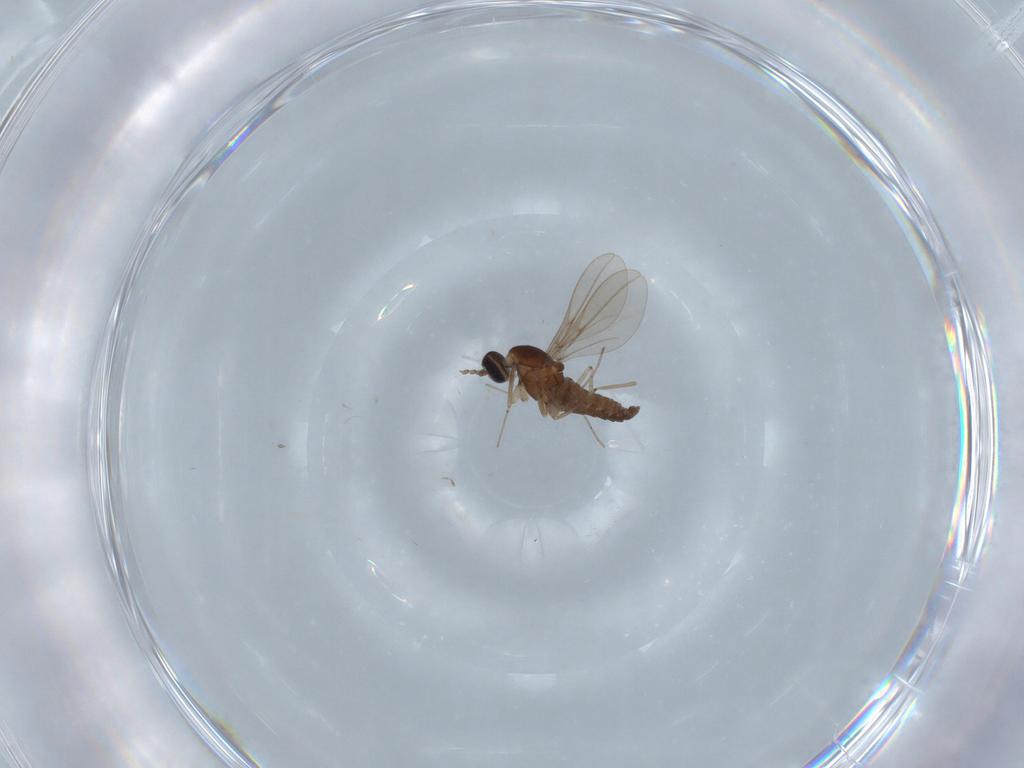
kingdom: Animalia
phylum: Arthropoda
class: Insecta
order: Diptera
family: Cecidomyiidae
